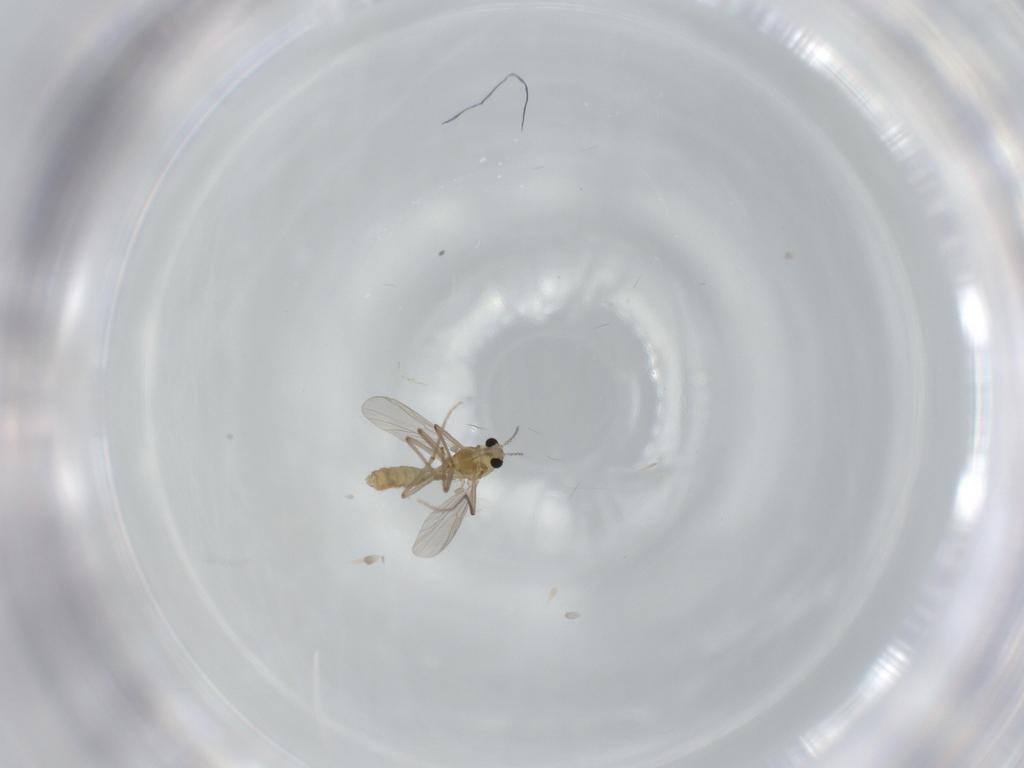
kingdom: Animalia
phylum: Arthropoda
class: Insecta
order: Diptera
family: Chironomidae
